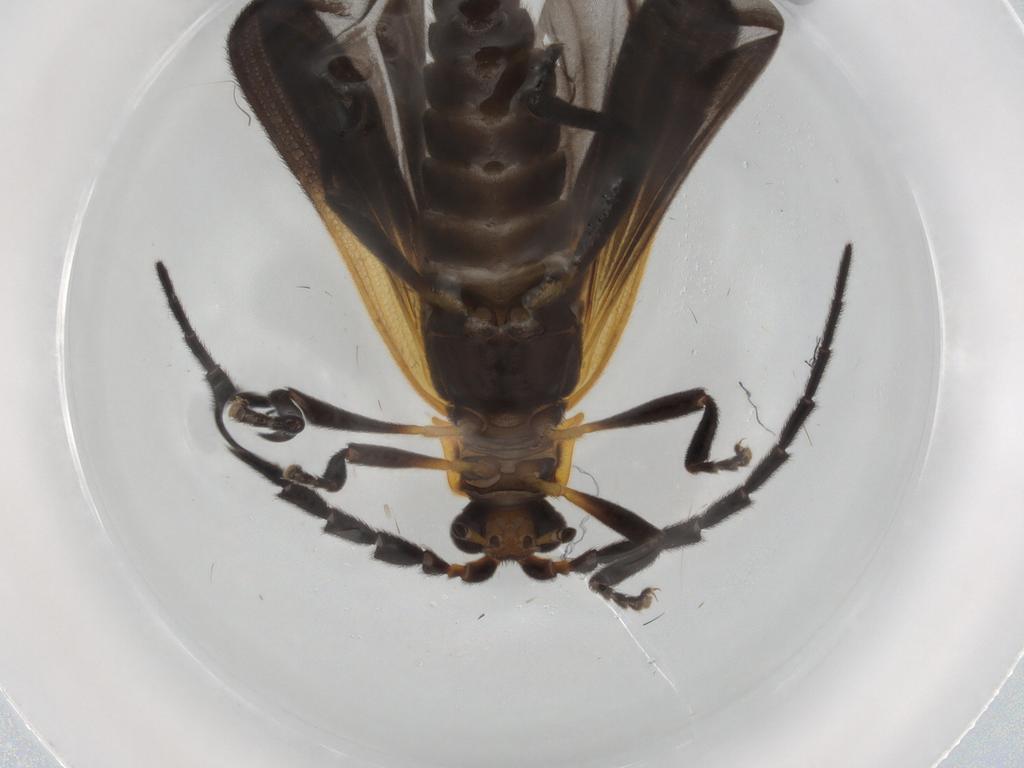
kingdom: Animalia
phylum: Arthropoda
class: Insecta
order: Coleoptera
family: Lycidae
